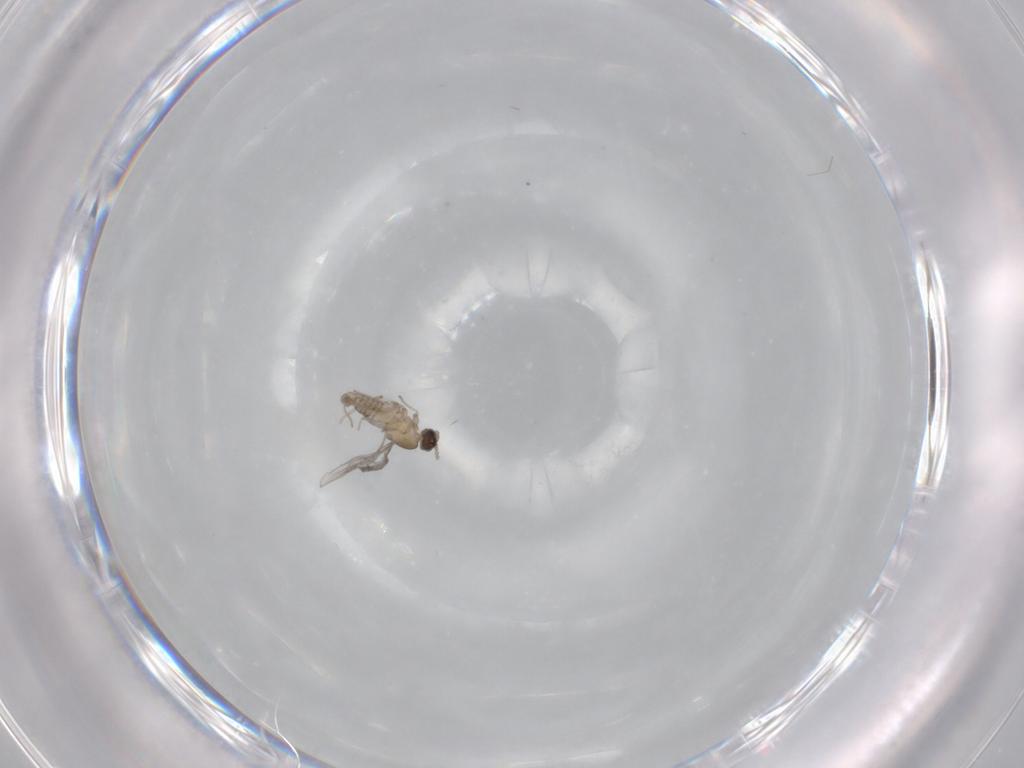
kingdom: Animalia
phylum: Arthropoda
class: Insecta
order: Diptera
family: Cecidomyiidae
